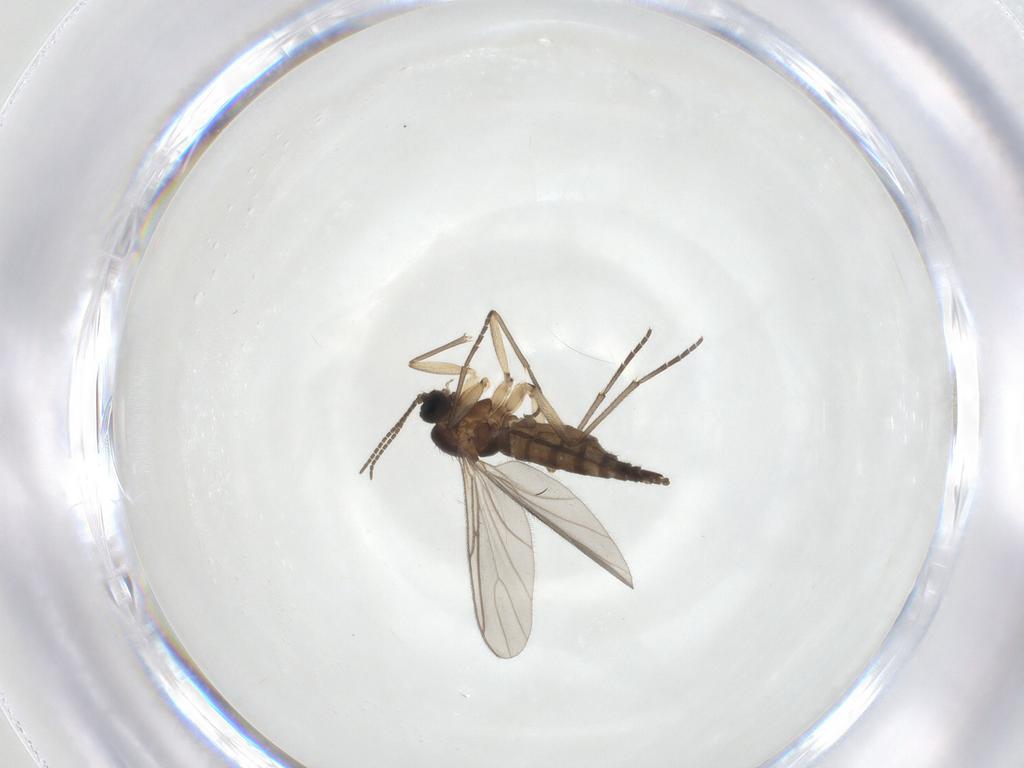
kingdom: Animalia
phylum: Arthropoda
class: Insecta
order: Diptera
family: Sciaridae
